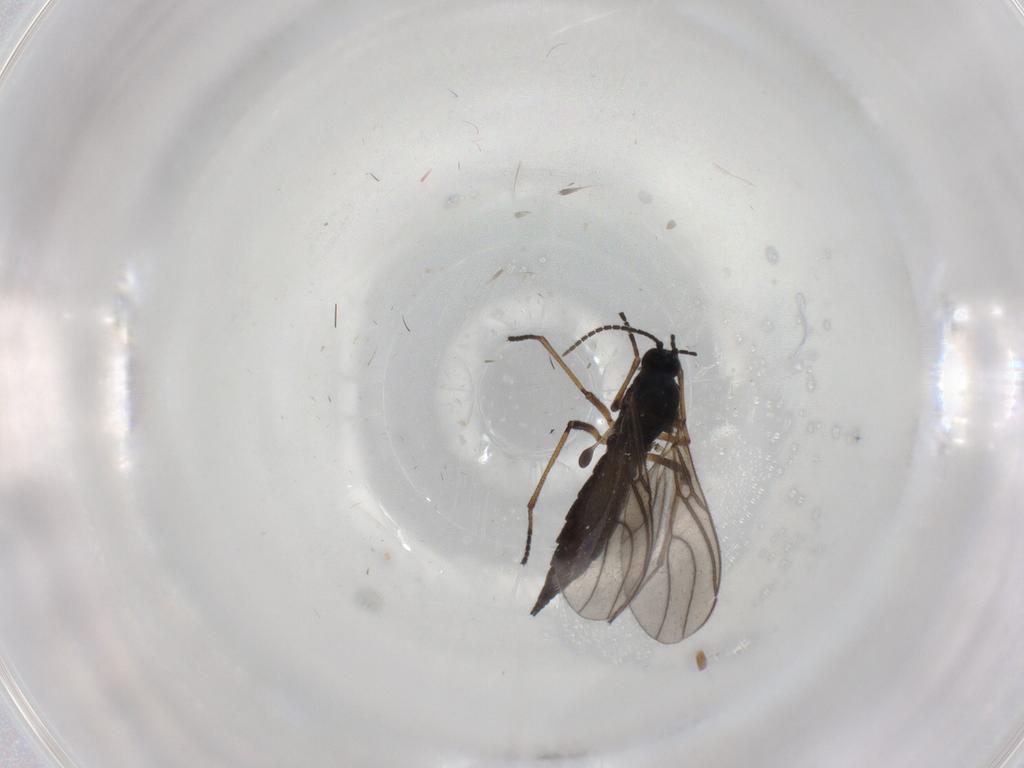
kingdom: Animalia
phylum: Arthropoda
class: Insecta
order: Diptera
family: Sciaridae
